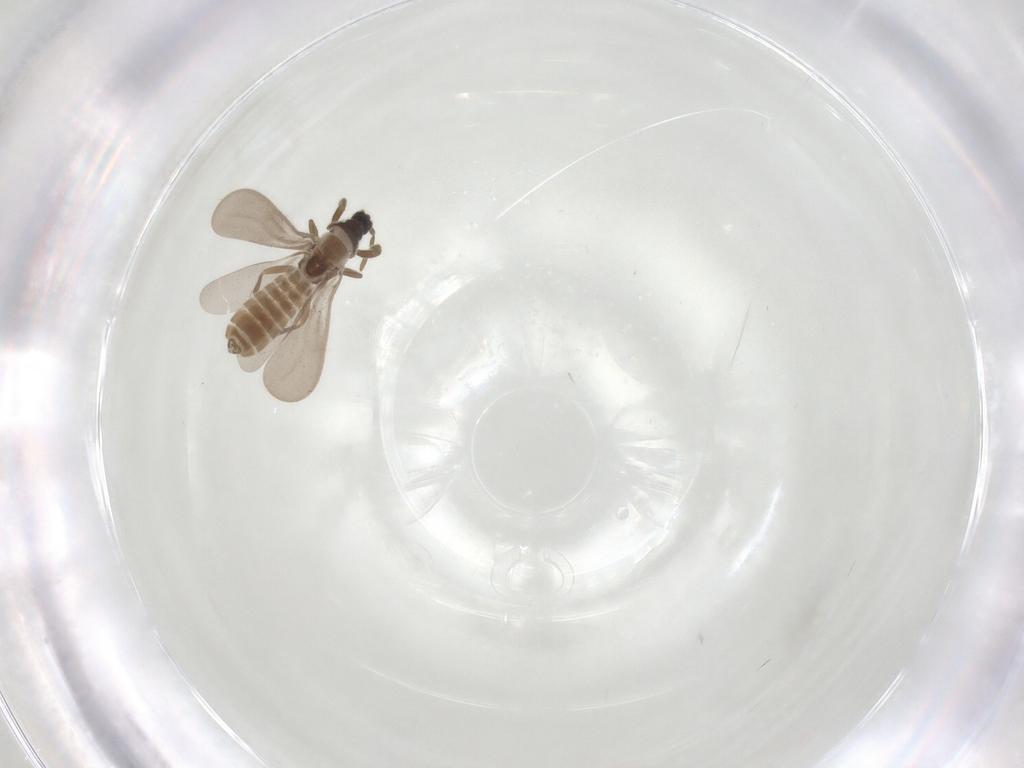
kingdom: Animalia
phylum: Arthropoda
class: Insecta
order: Hemiptera
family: Enicocephalidae
